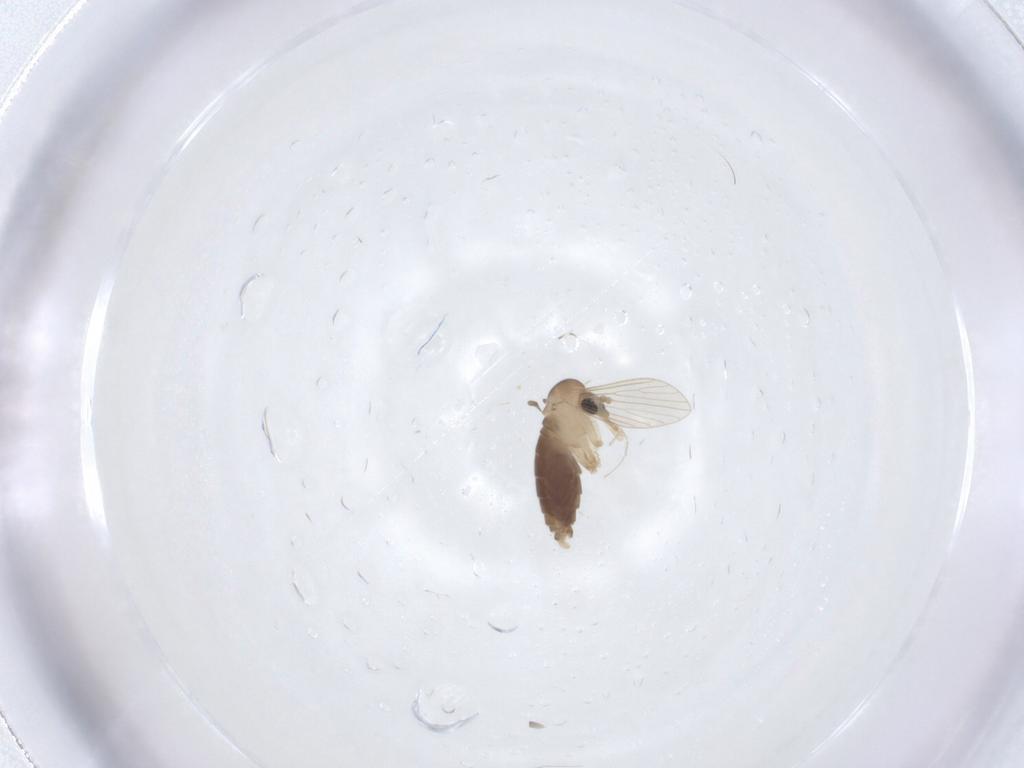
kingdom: Animalia
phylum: Arthropoda
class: Insecta
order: Diptera
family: Psychodidae
